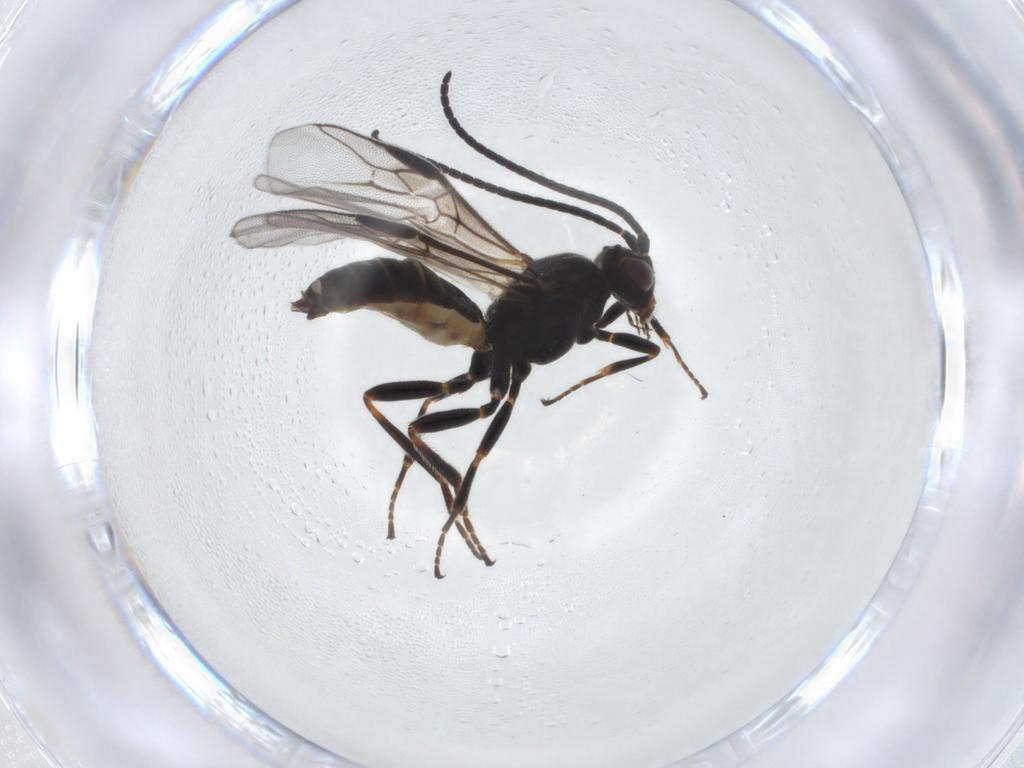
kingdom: Animalia
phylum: Arthropoda
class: Insecta
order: Hymenoptera
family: Braconidae
